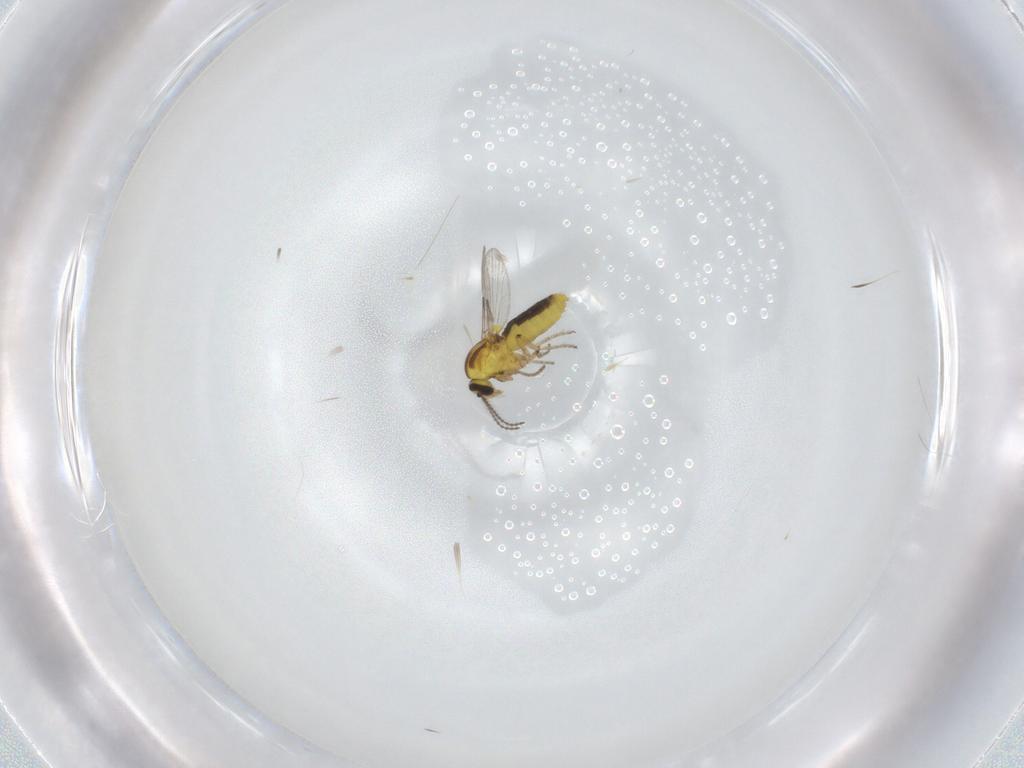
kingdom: Animalia
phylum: Arthropoda
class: Insecta
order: Diptera
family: Ceratopogonidae
